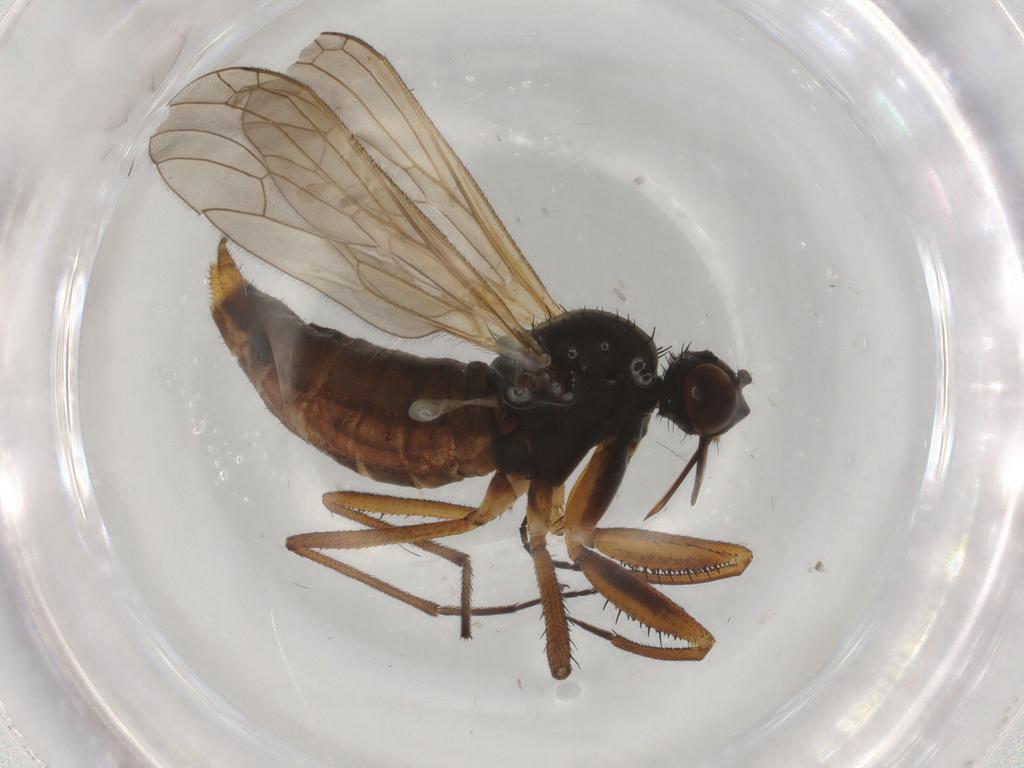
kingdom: Animalia
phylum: Arthropoda
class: Insecta
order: Diptera
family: Empididae
